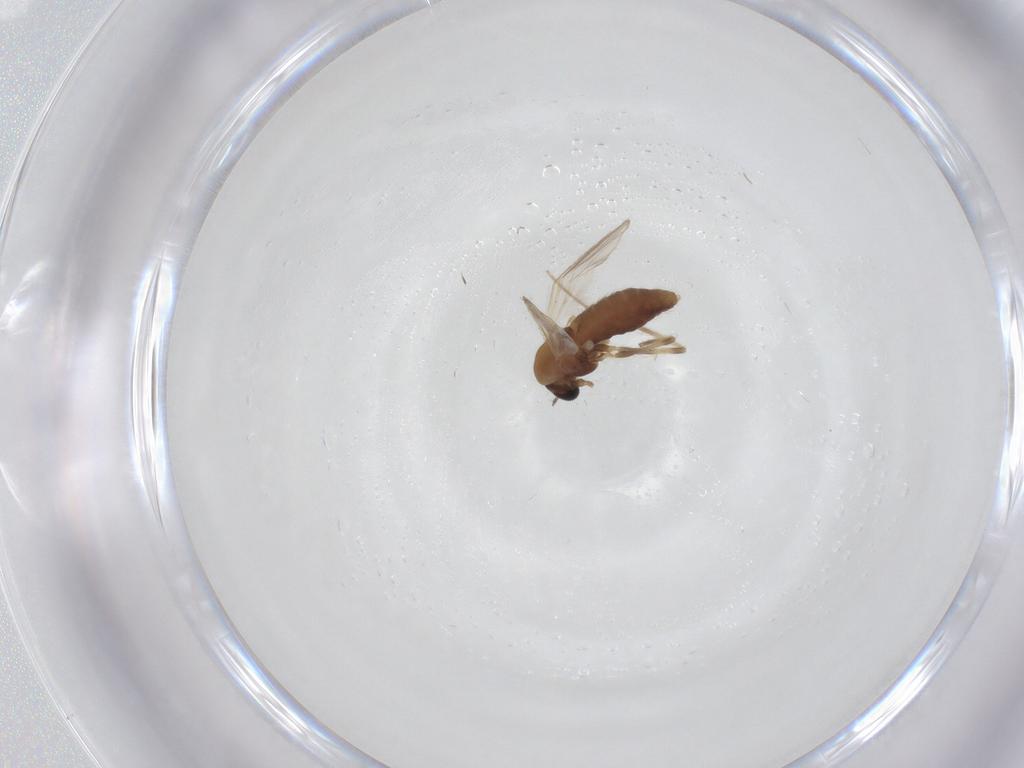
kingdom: Animalia
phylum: Arthropoda
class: Insecta
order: Diptera
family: Chironomidae
